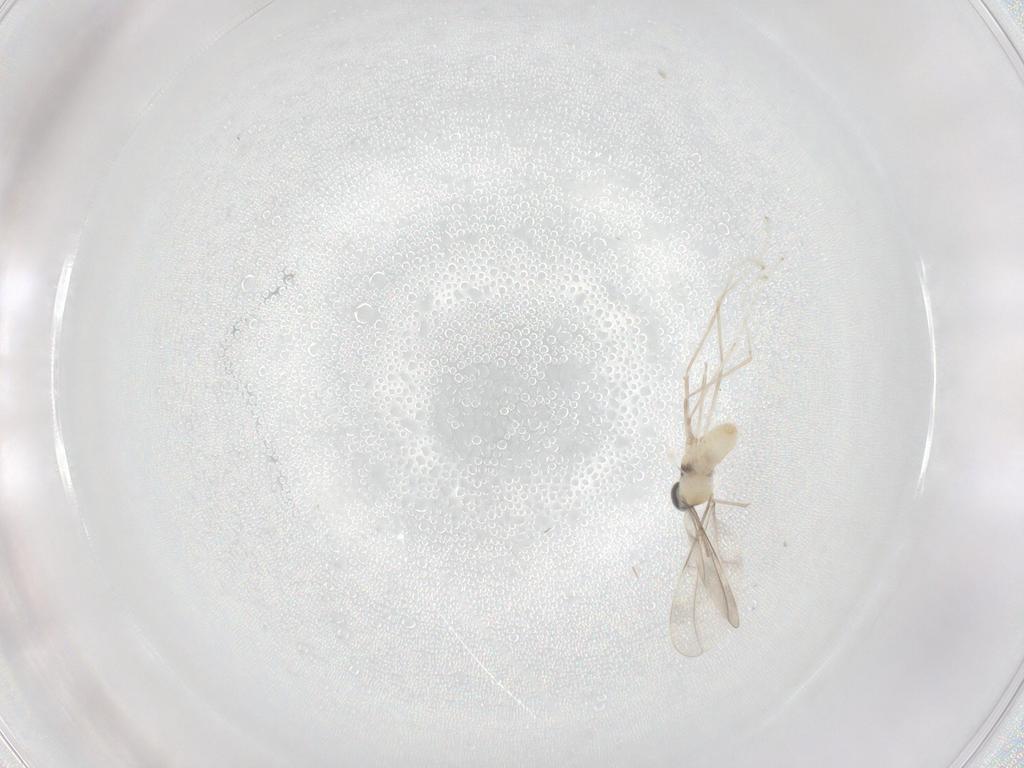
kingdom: Animalia
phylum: Arthropoda
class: Insecta
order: Diptera
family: Cecidomyiidae
